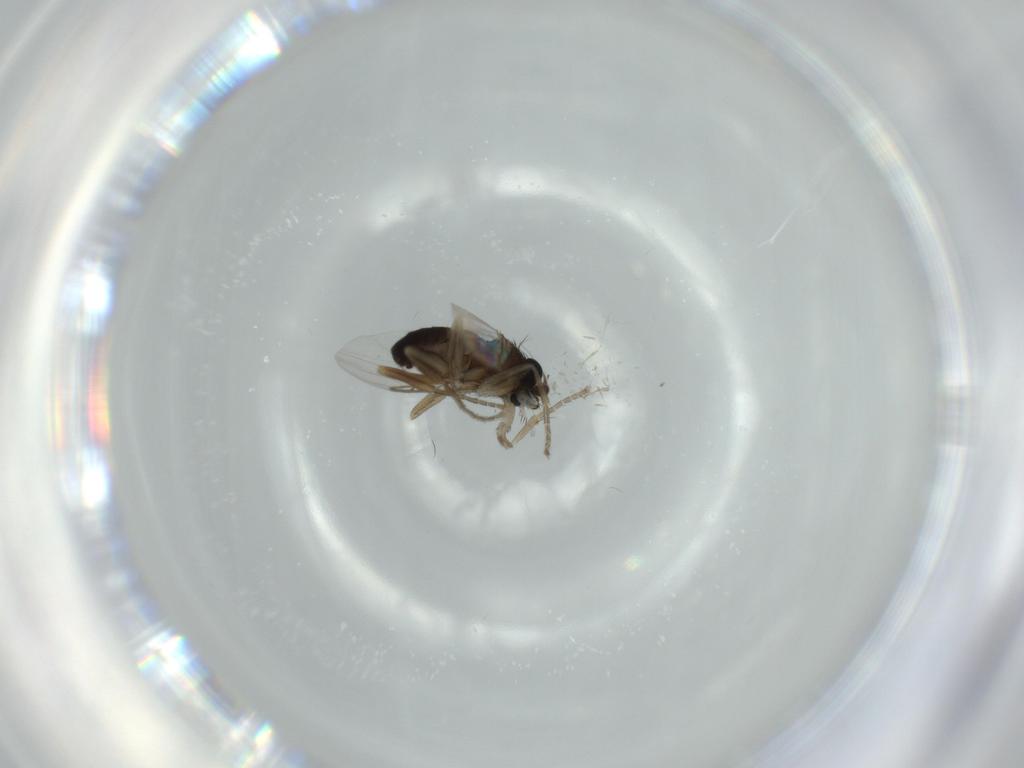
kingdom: Animalia
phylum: Arthropoda
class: Insecta
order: Diptera
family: Phoridae
